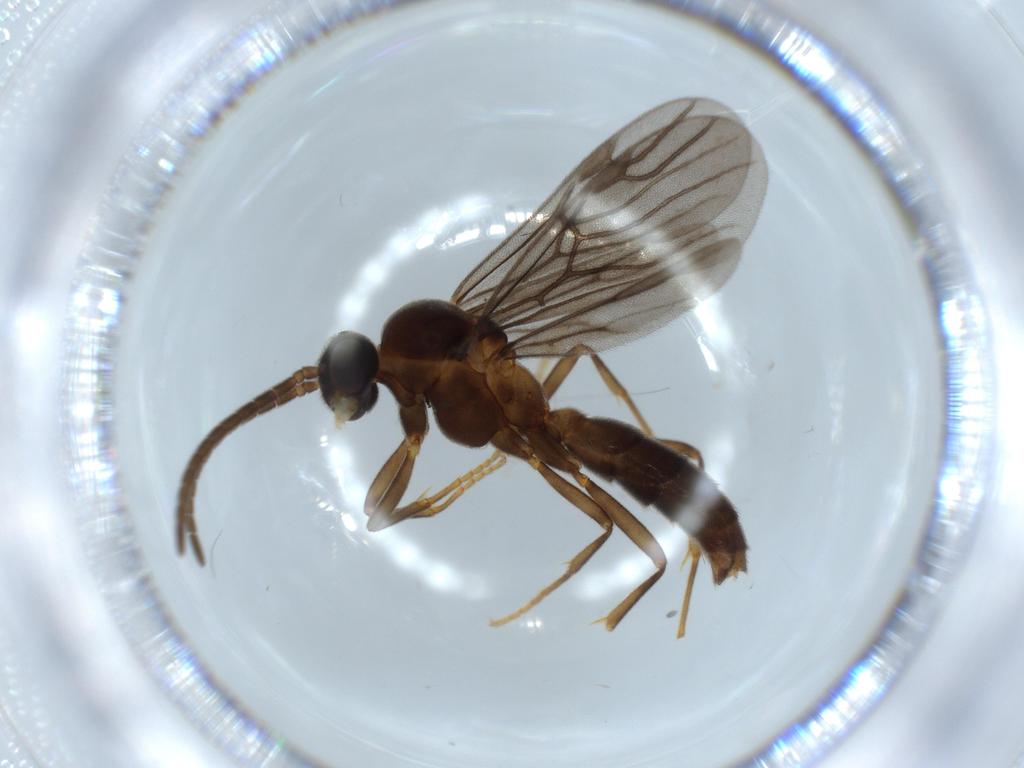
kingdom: Animalia
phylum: Arthropoda
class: Insecta
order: Hymenoptera
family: Formicidae
